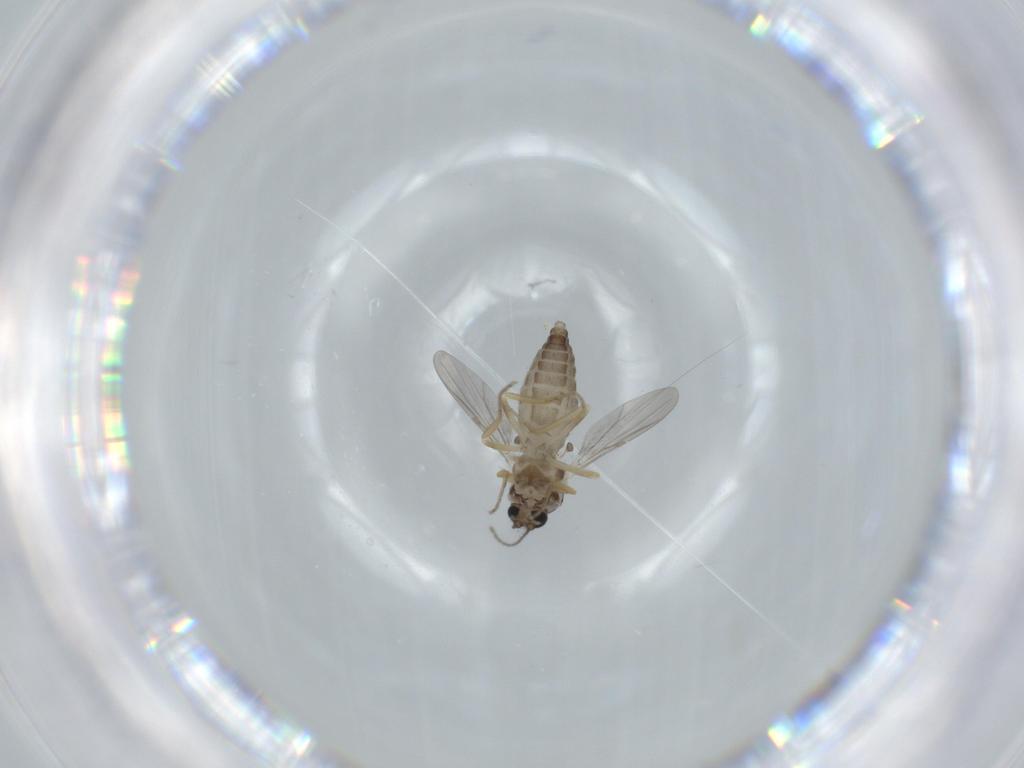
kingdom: Animalia
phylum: Arthropoda
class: Insecta
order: Diptera
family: Ceratopogonidae
